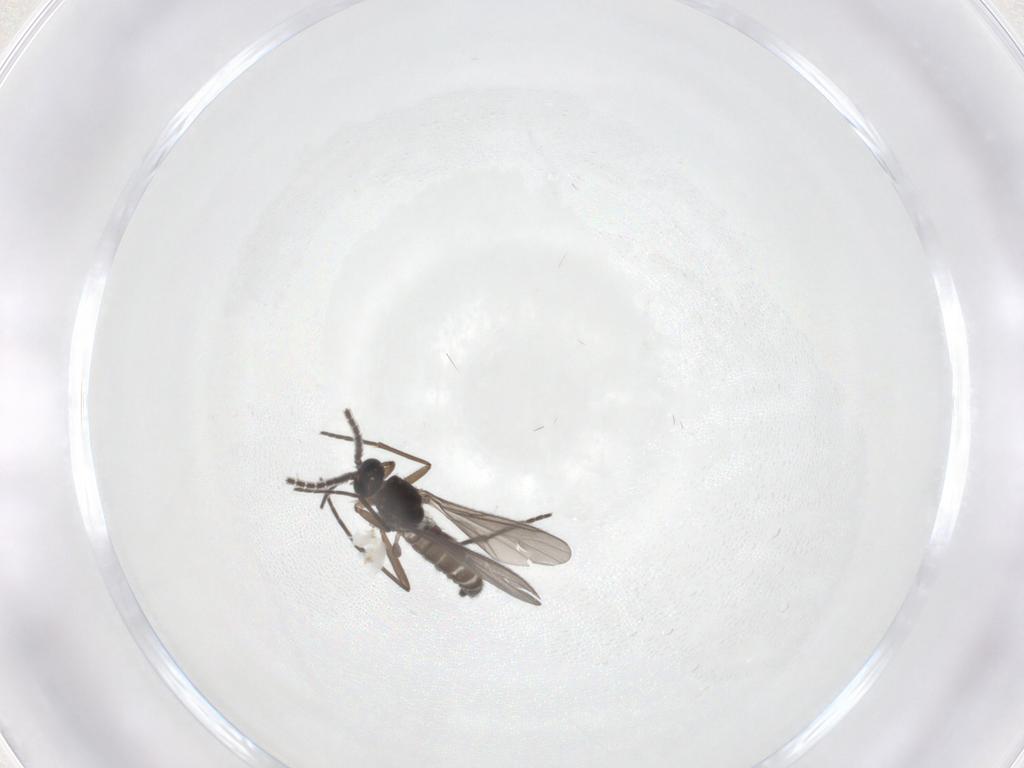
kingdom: Animalia
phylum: Arthropoda
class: Insecta
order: Diptera
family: Sciaridae
